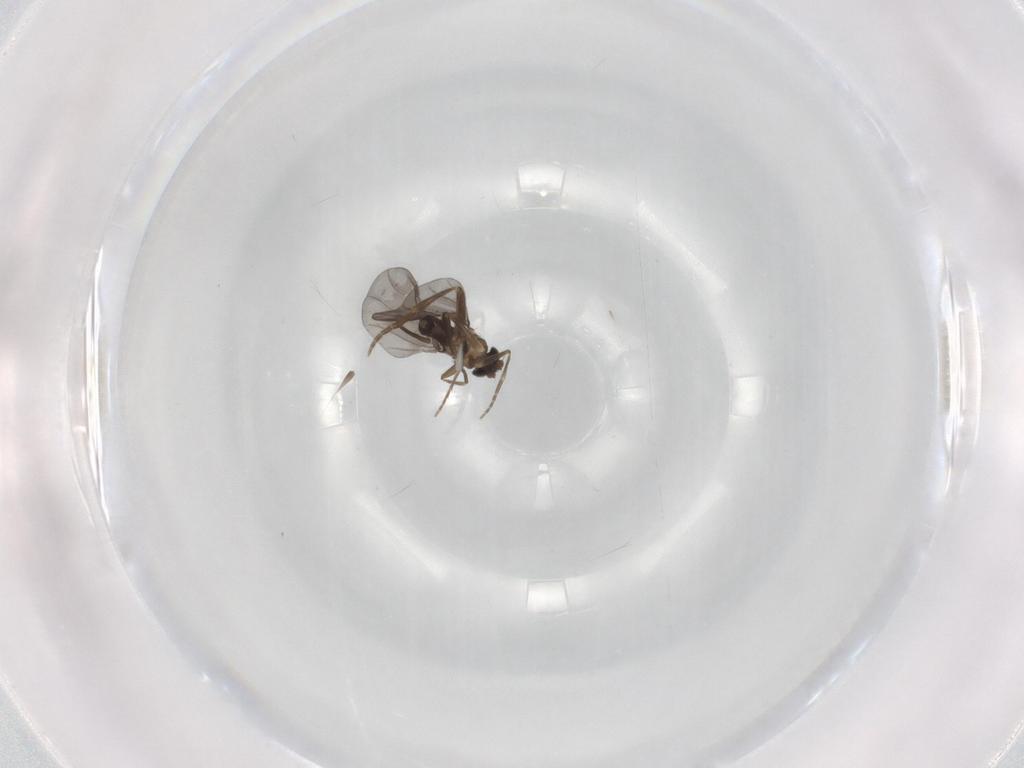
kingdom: Animalia
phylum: Arthropoda
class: Insecta
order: Diptera
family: Cecidomyiidae
